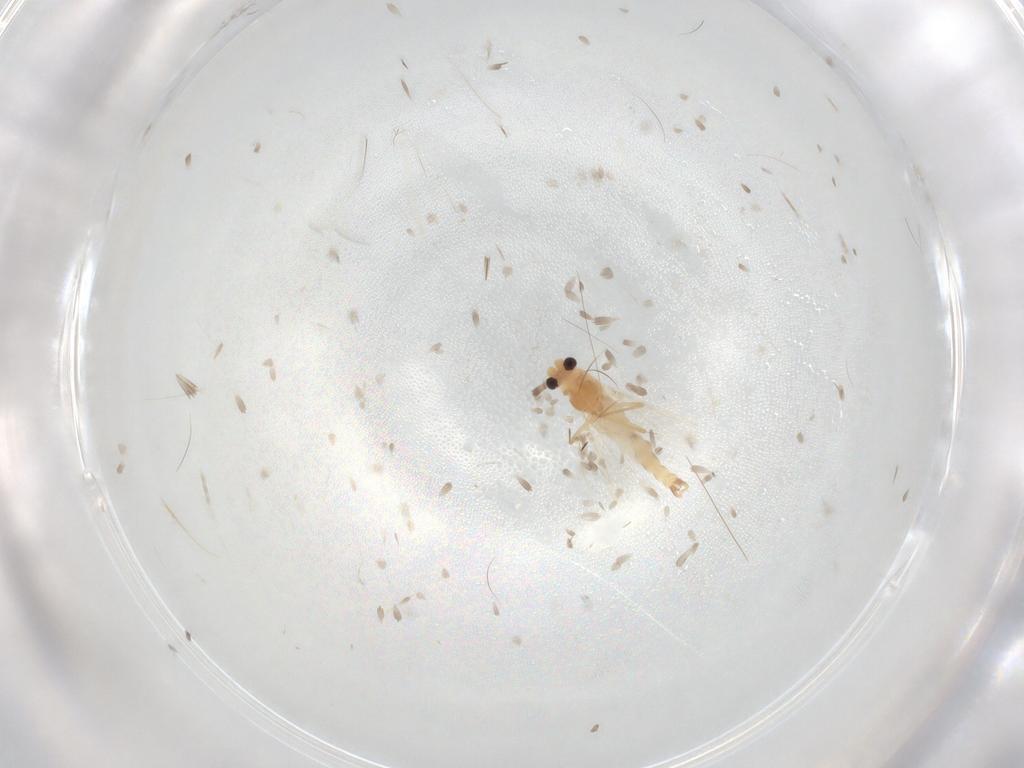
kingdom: Animalia
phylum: Arthropoda
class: Insecta
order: Diptera
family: Chironomidae
